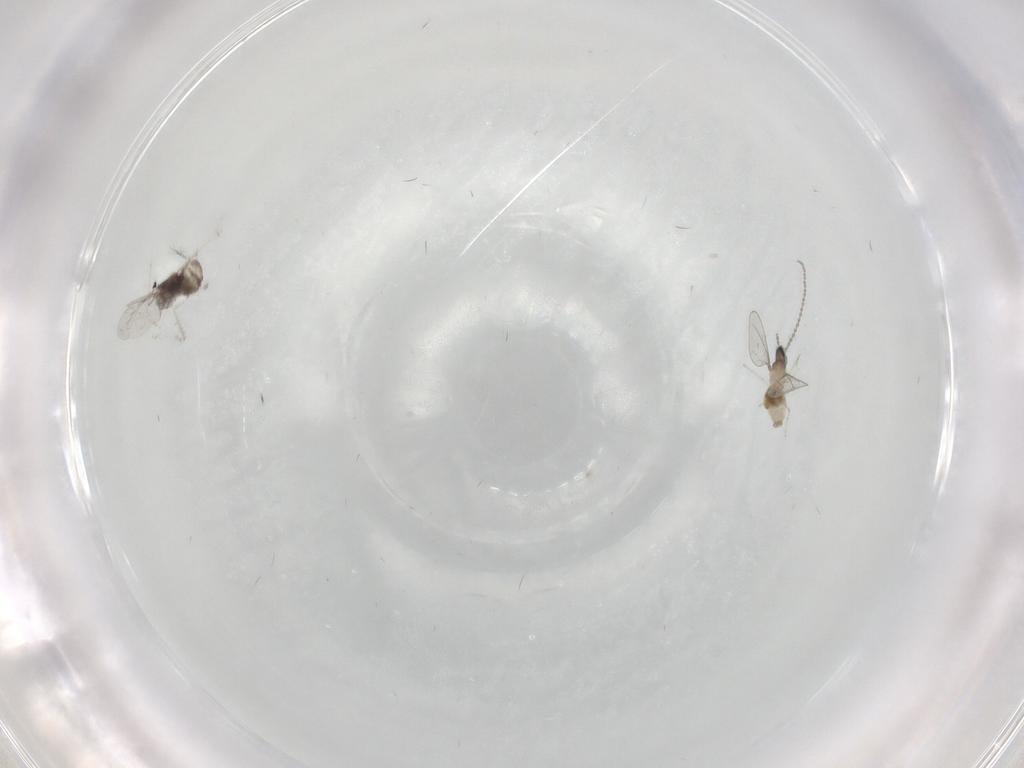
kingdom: Animalia
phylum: Arthropoda
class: Insecta
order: Diptera
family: Cecidomyiidae
